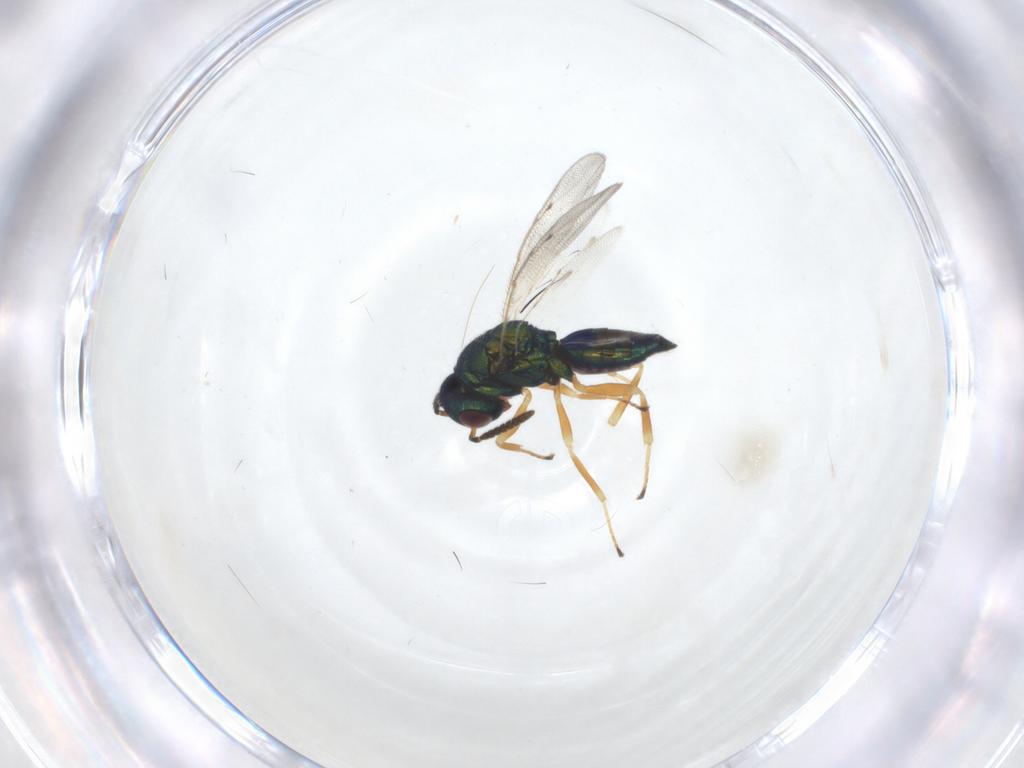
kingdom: Animalia
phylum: Arthropoda
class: Insecta
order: Hymenoptera
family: Pteromalidae
